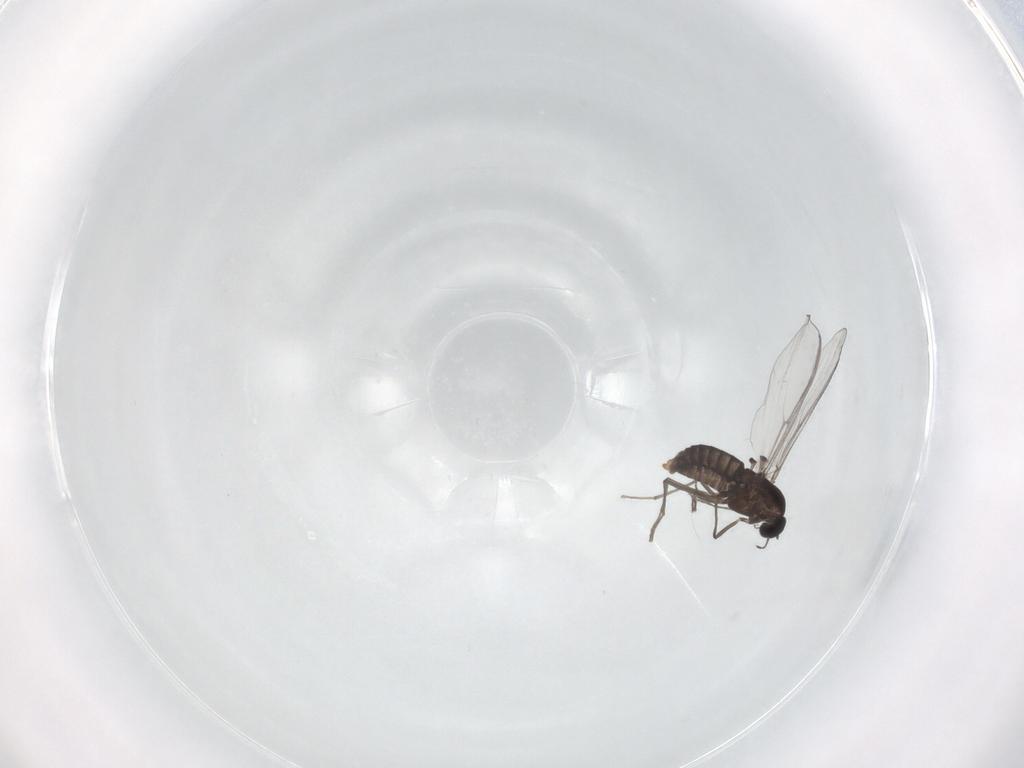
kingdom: Animalia
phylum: Arthropoda
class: Insecta
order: Diptera
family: Chironomidae
